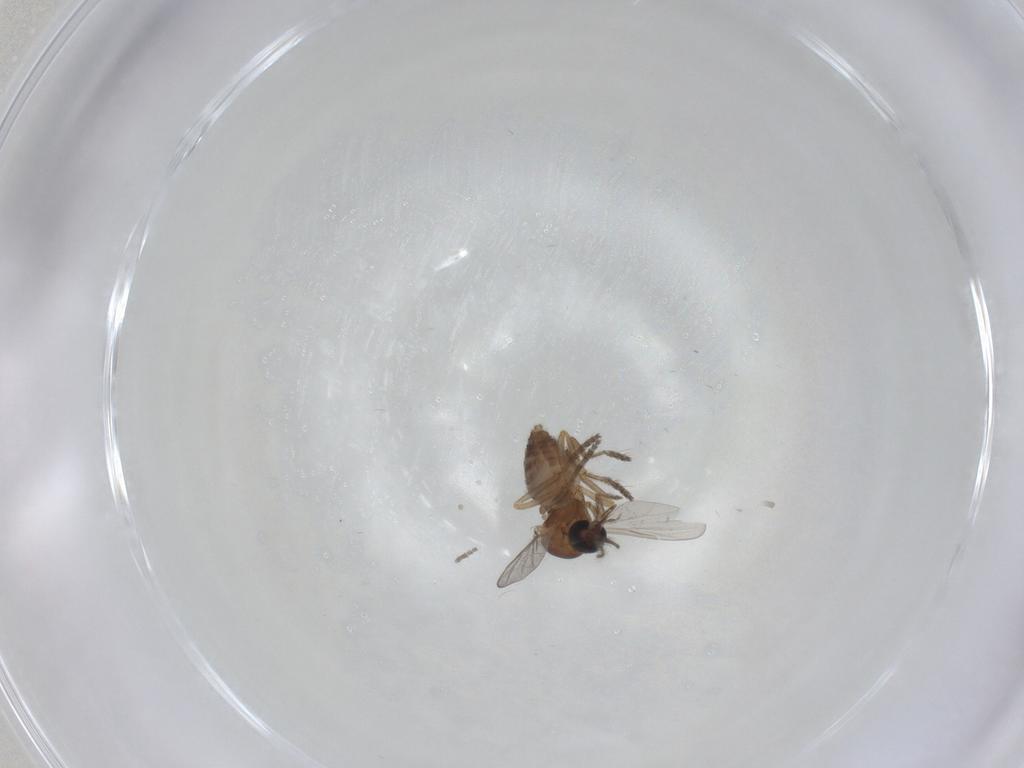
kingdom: Animalia
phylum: Arthropoda
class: Insecta
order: Diptera
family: Ceratopogonidae
